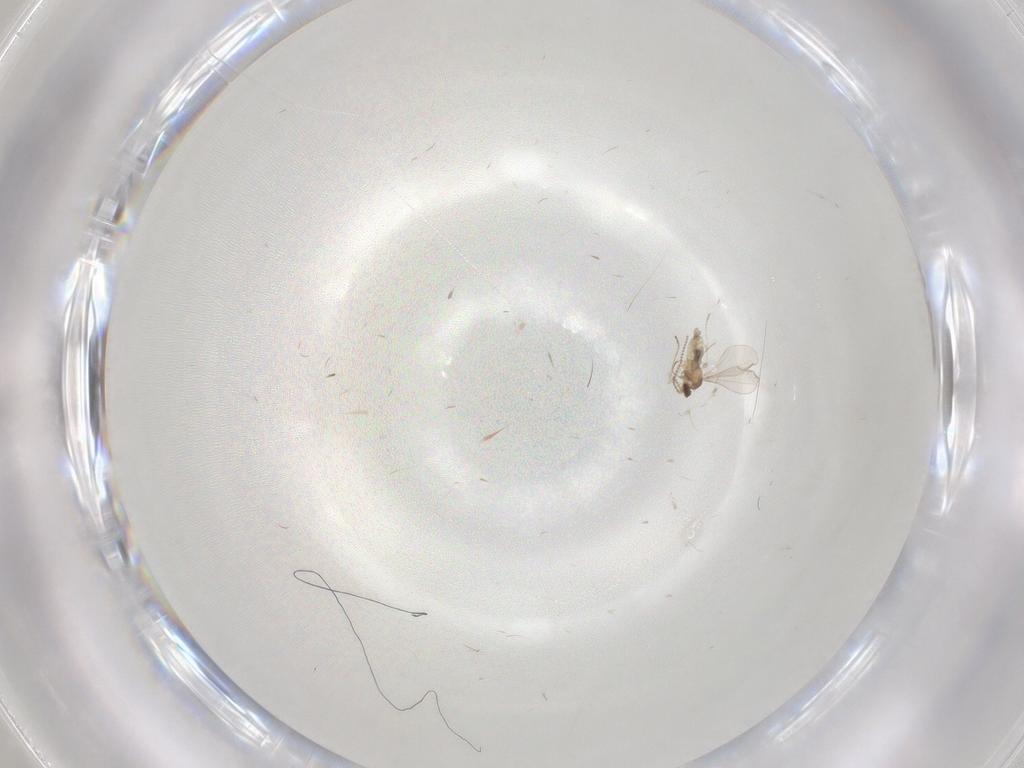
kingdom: Animalia
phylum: Arthropoda
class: Insecta
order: Diptera
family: Cecidomyiidae
